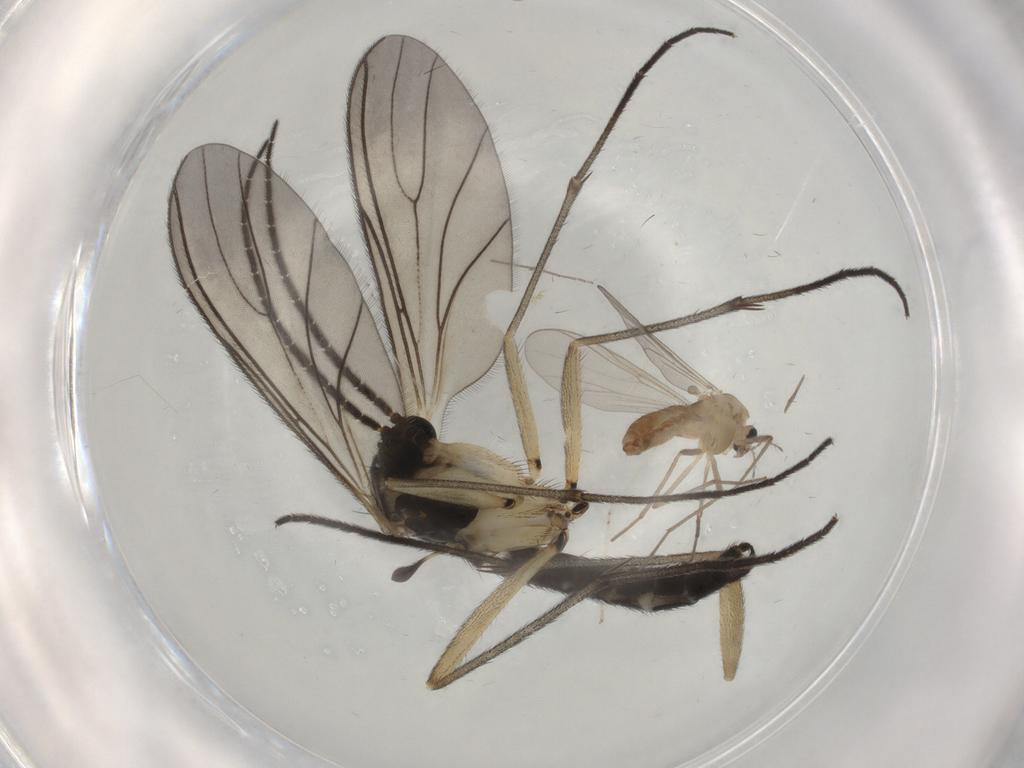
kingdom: Animalia
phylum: Arthropoda
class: Insecta
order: Diptera
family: Sciaridae
